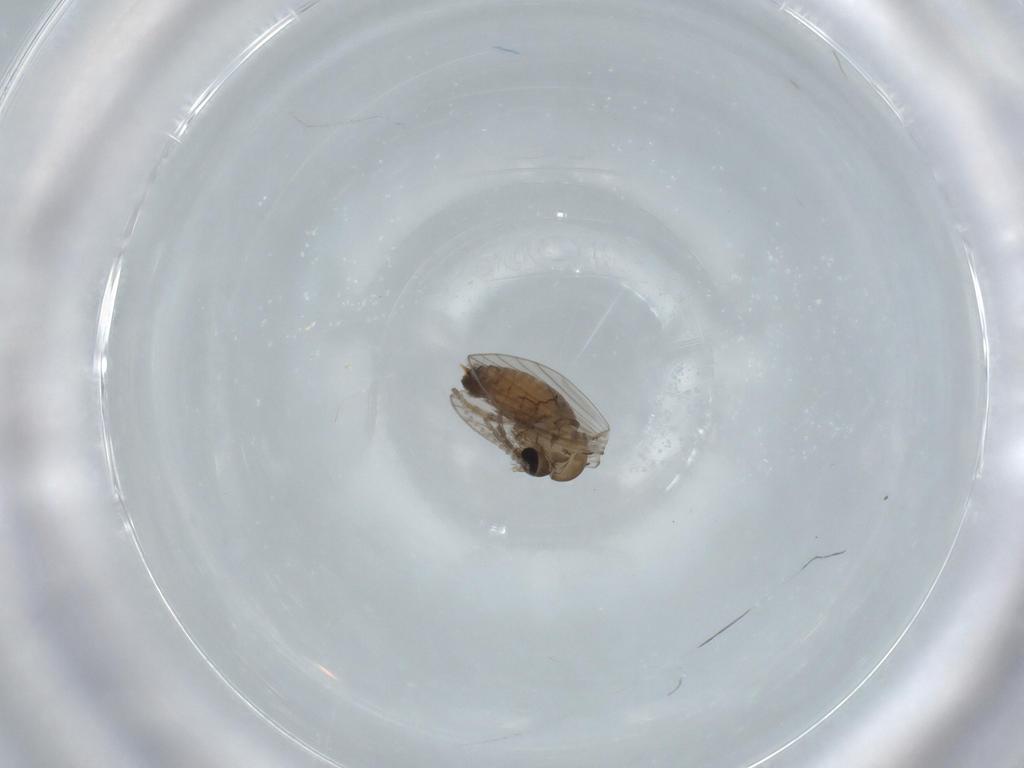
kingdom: Animalia
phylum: Arthropoda
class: Insecta
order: Diptera
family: Psychodidae
